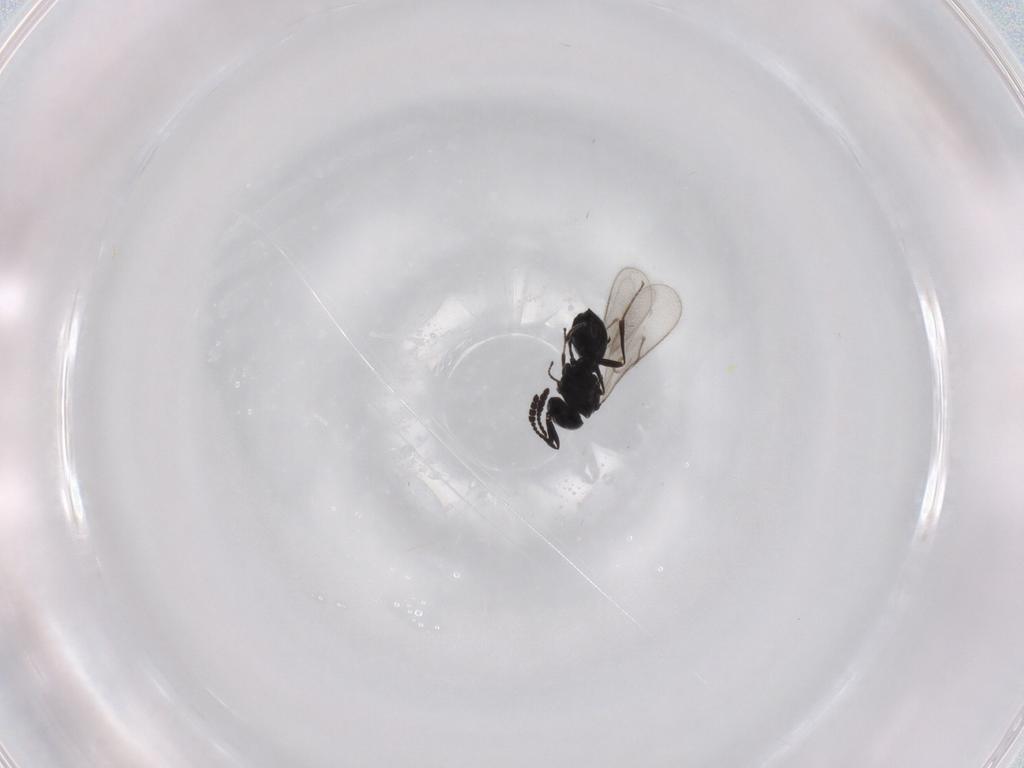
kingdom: Animalia
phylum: Arthropoda
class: Insecta
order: Hymenoptera
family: Scelionidae
